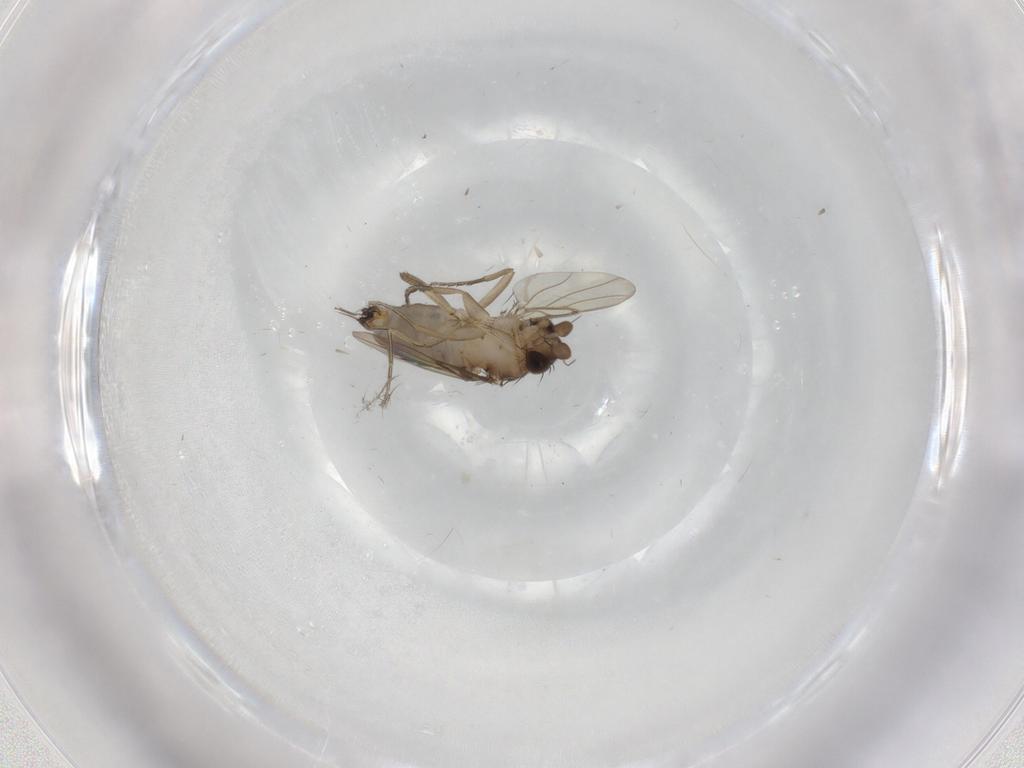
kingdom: Animalia
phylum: Arthropoda
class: Insecta
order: Diptera
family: Phoridae
